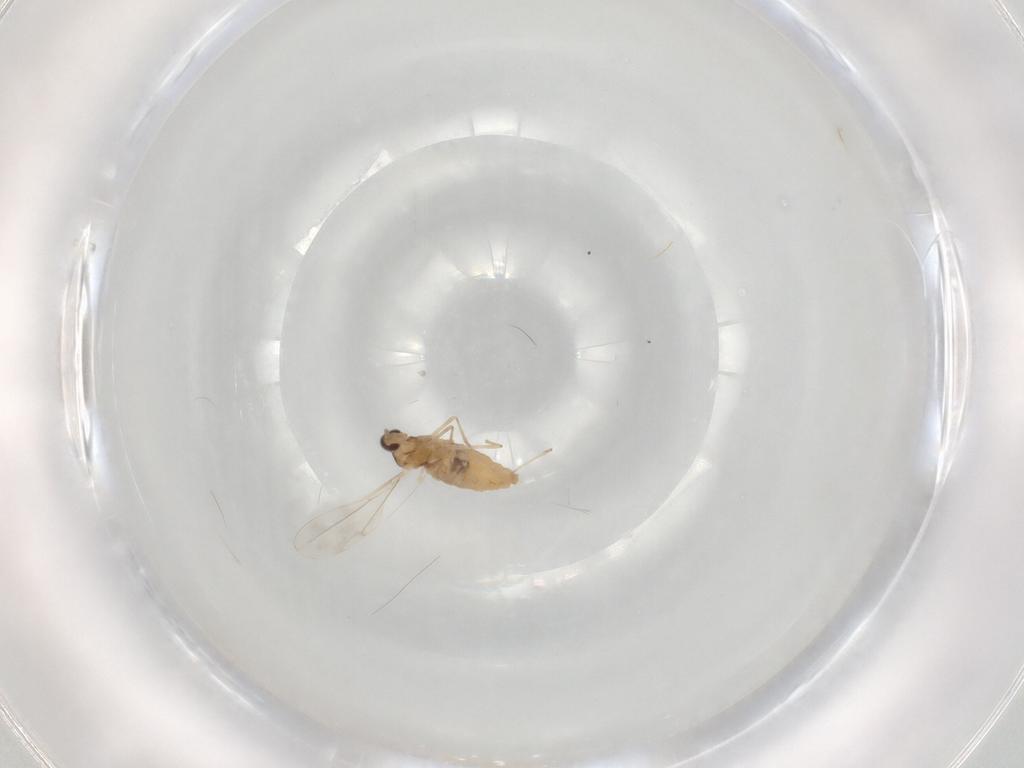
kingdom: Animalia
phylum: Arthropoda
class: Insecta
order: Diptera
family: Cecidomyiidae
